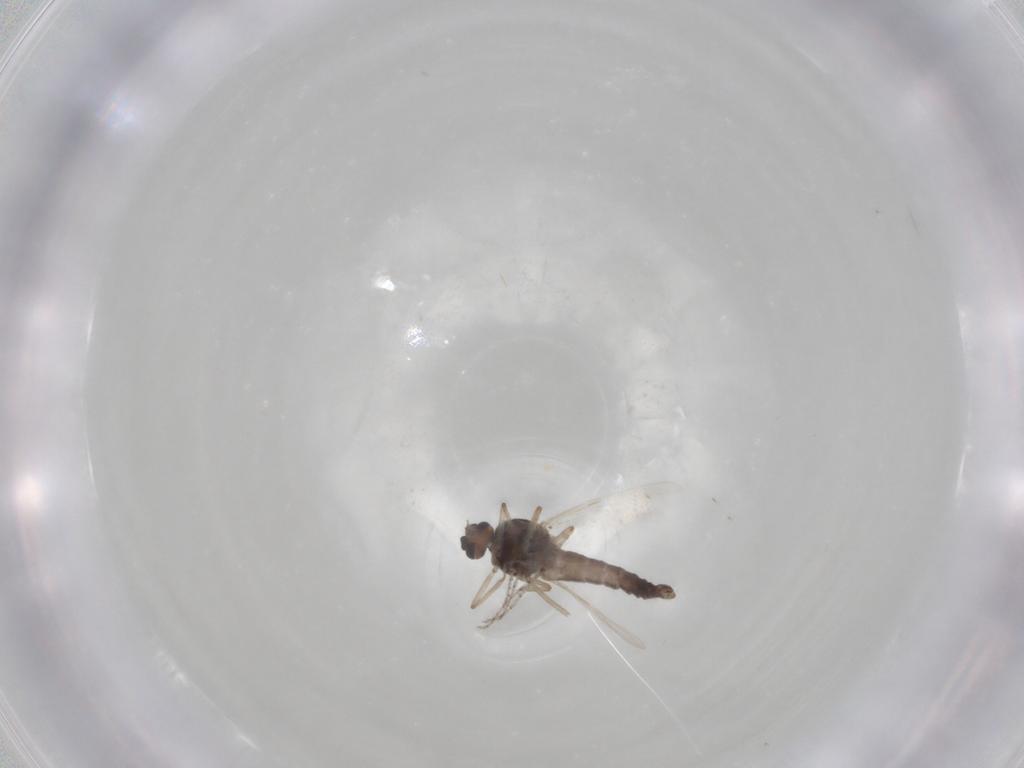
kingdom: Animalia
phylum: Arthropoda
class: Insecta
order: Diptera
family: Ceratopogonidae
